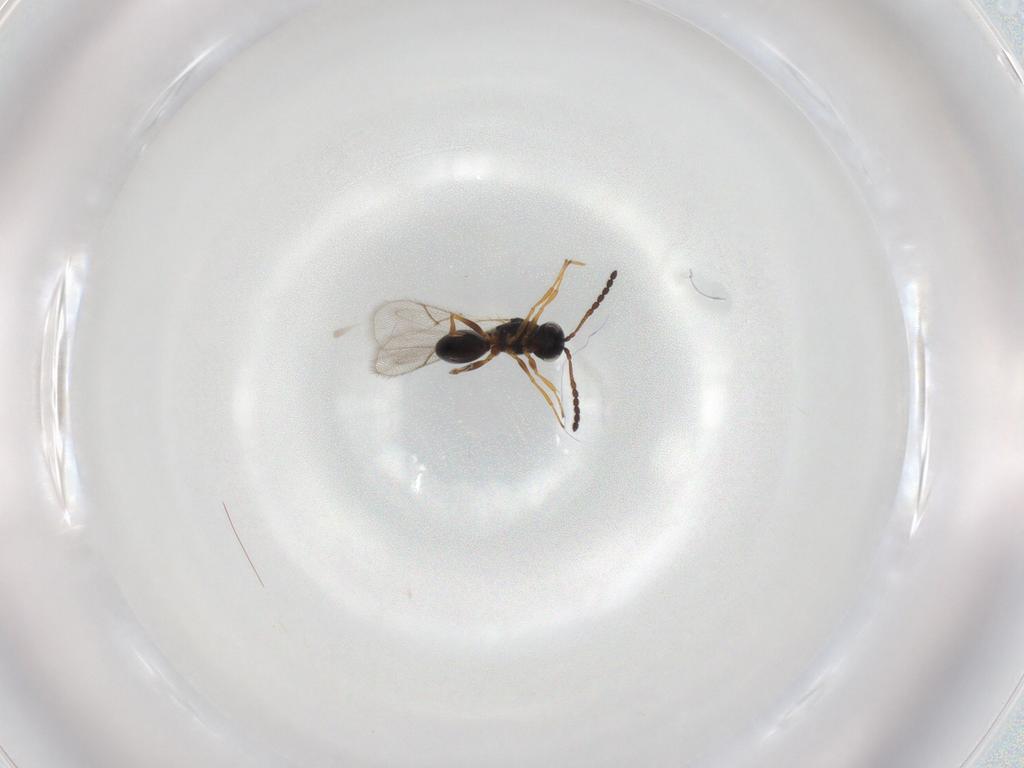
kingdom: Animalia
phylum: Arthropoda
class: Insecta
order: Hymenoptera
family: Figitidae
